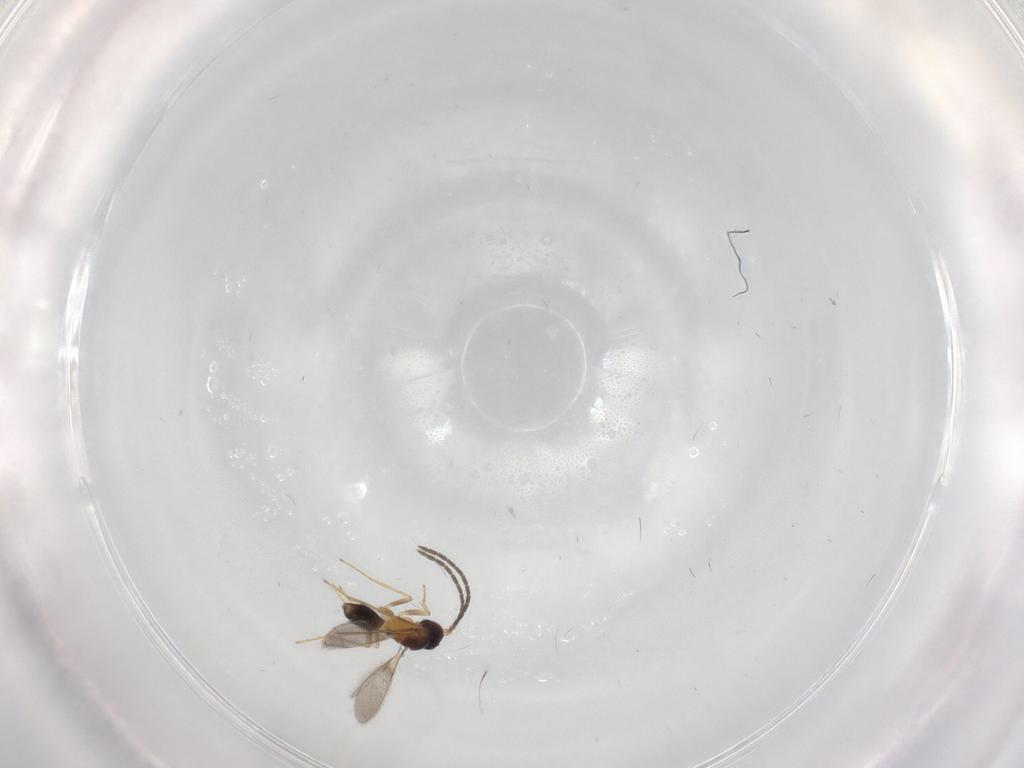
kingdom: Animalia
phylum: Arthropoda
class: Insecta
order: Hymenoptera
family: Mymaridae
